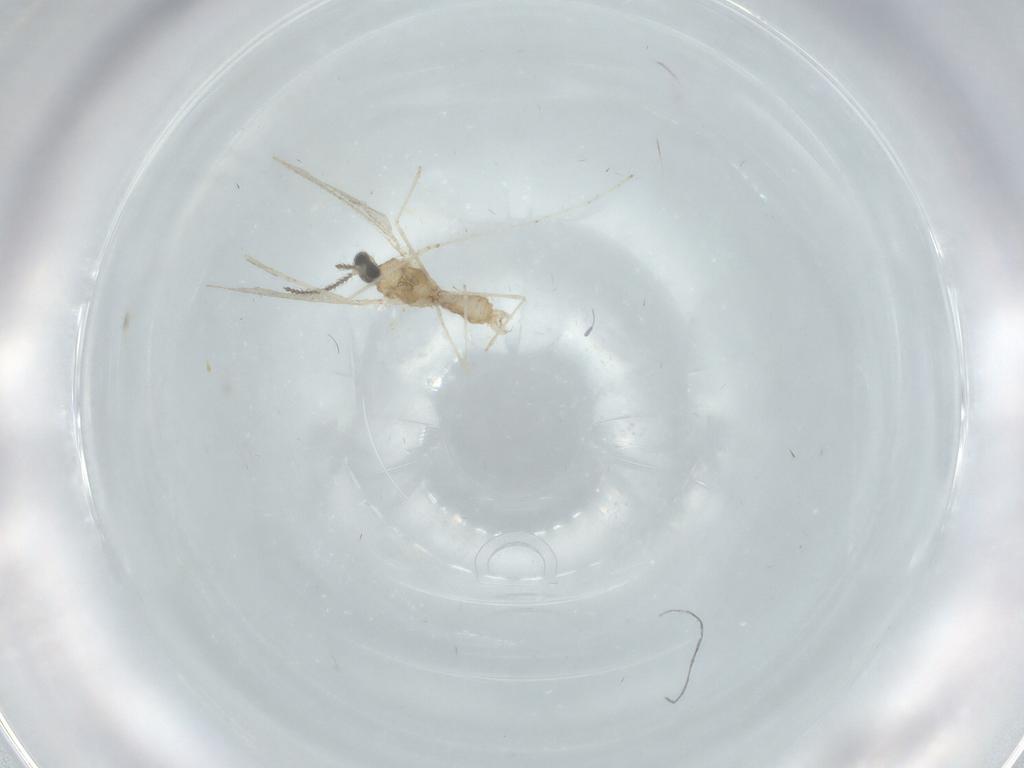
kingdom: Animalia
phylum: Arthropoda
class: Insecta
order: Diptera
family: Cecidomyiidae
